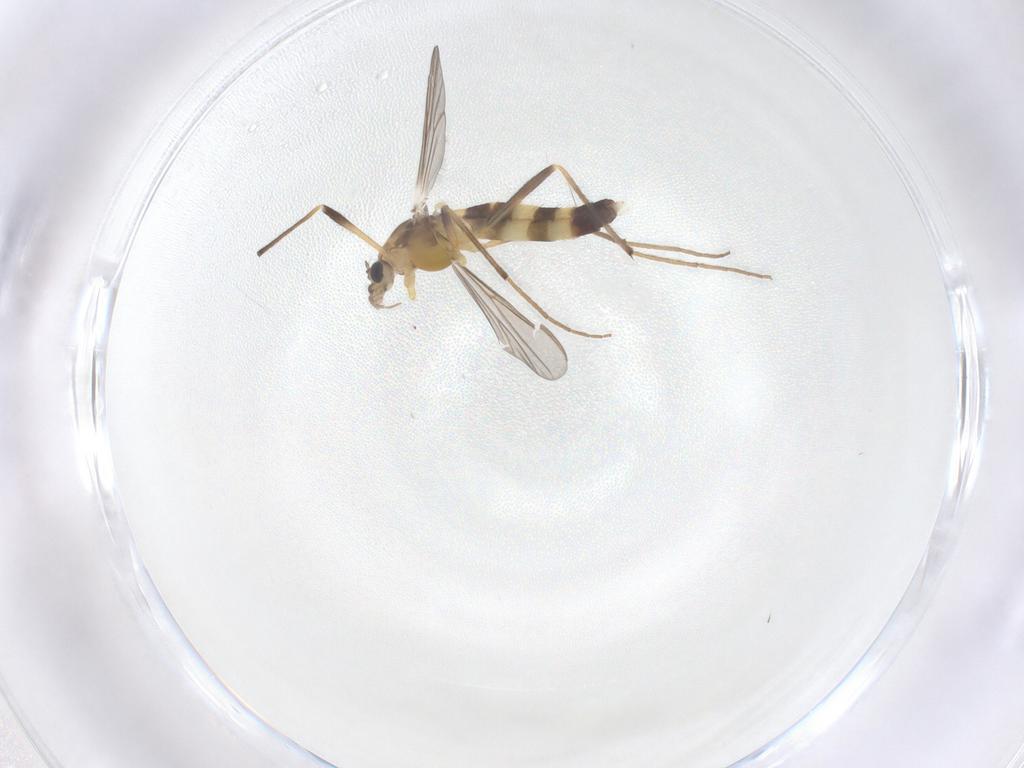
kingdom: Animalia
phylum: Arthropoda
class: Insecta
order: Diptera
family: Chironomidae
